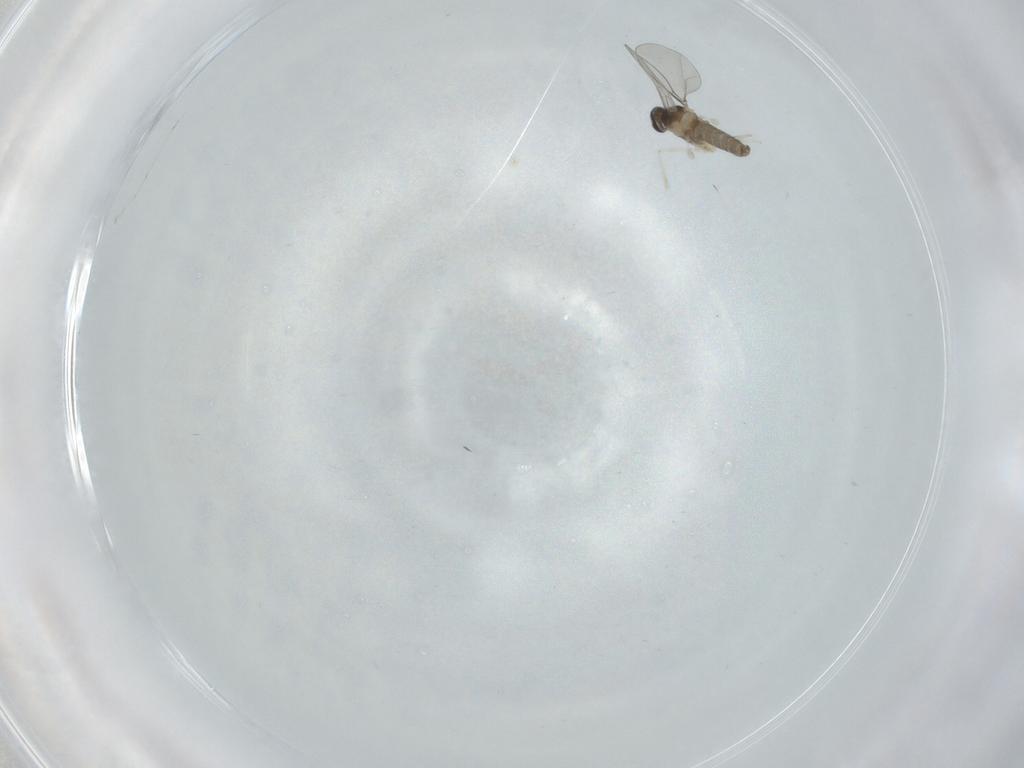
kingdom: Animalia
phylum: Arthropoda
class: Insecta
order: Diptera
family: Cecidomyiidae
